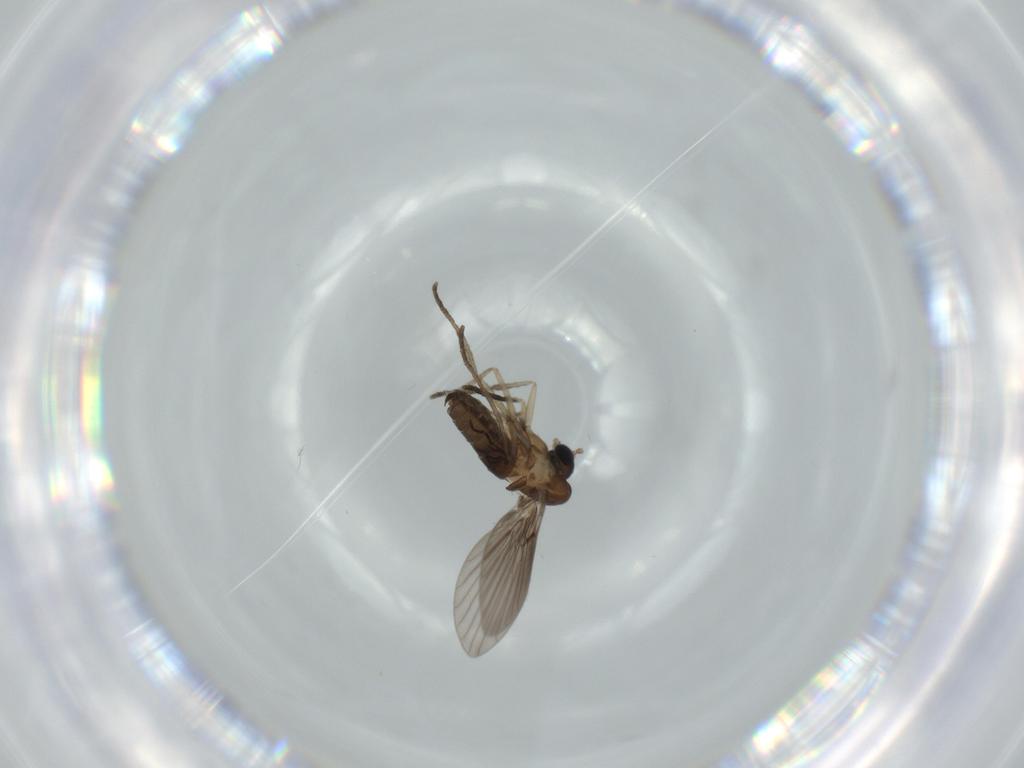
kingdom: Animalia
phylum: Arthropoda
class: Insecta
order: Diptera
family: Psychodidae
